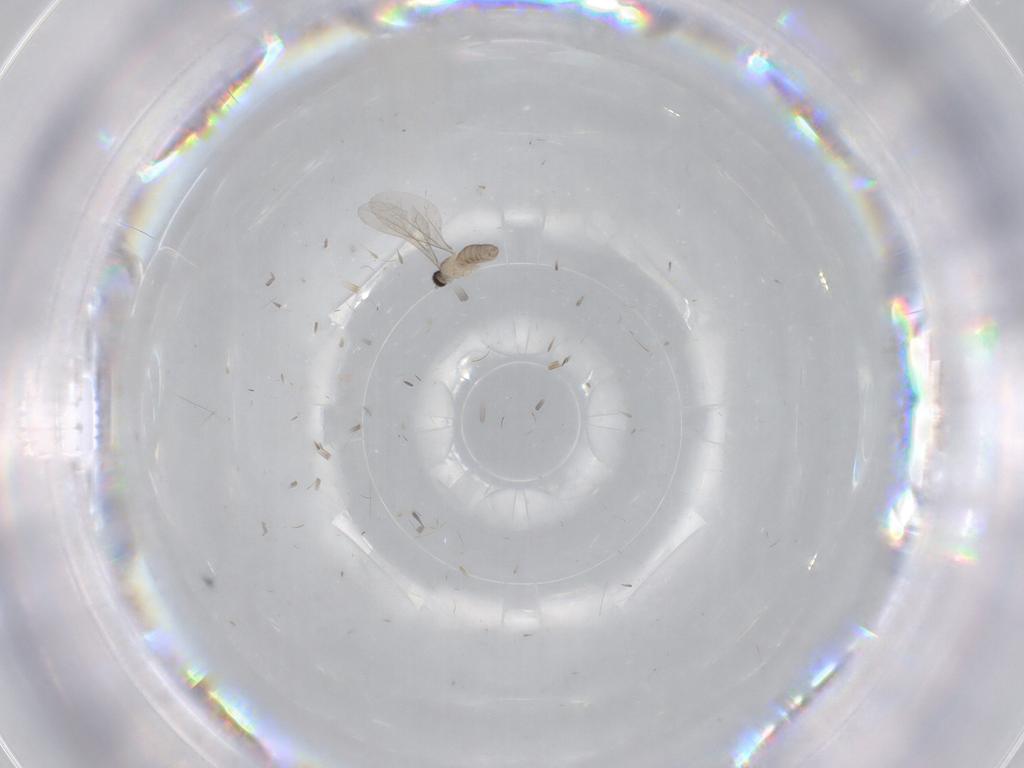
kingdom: Animalia
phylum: Arthropoda
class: Insecta
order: Diptera
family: Cecidomyiidae
